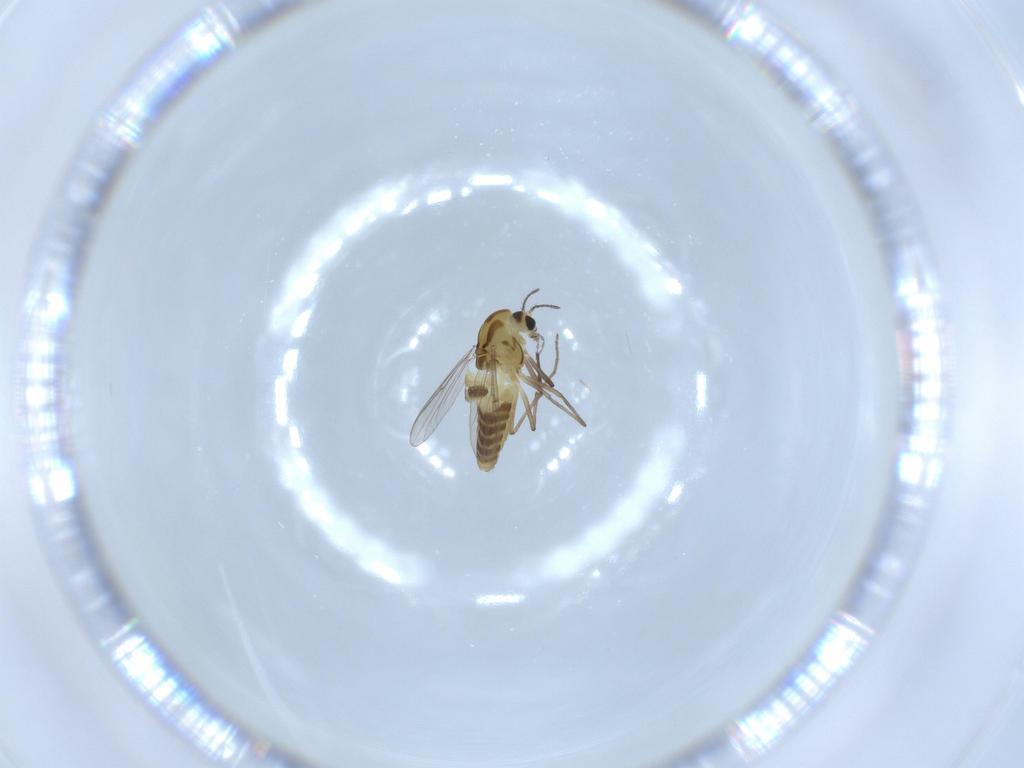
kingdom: Animalia
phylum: Arthropoda
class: Insecta
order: Diptera
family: Chironomidae
